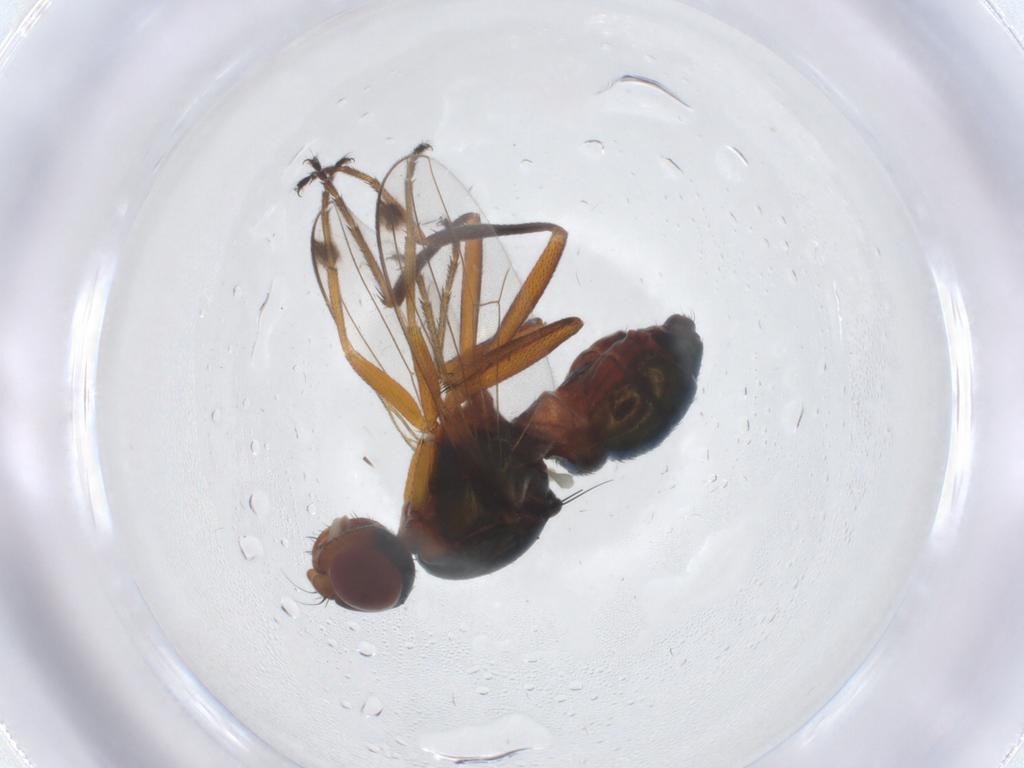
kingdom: Animalia
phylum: Arthropoda
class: Insecta
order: Diptera
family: Sepsidae
